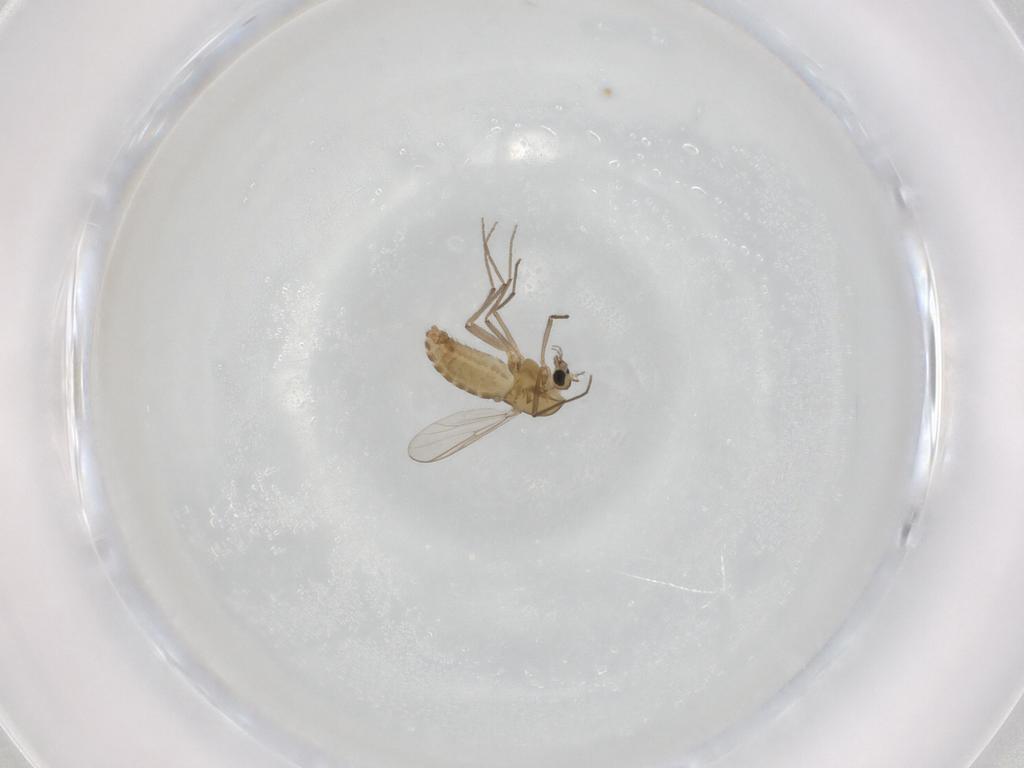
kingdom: Animalia
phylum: Arthropoda
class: Insecta
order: Diptera
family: Chironomidae
